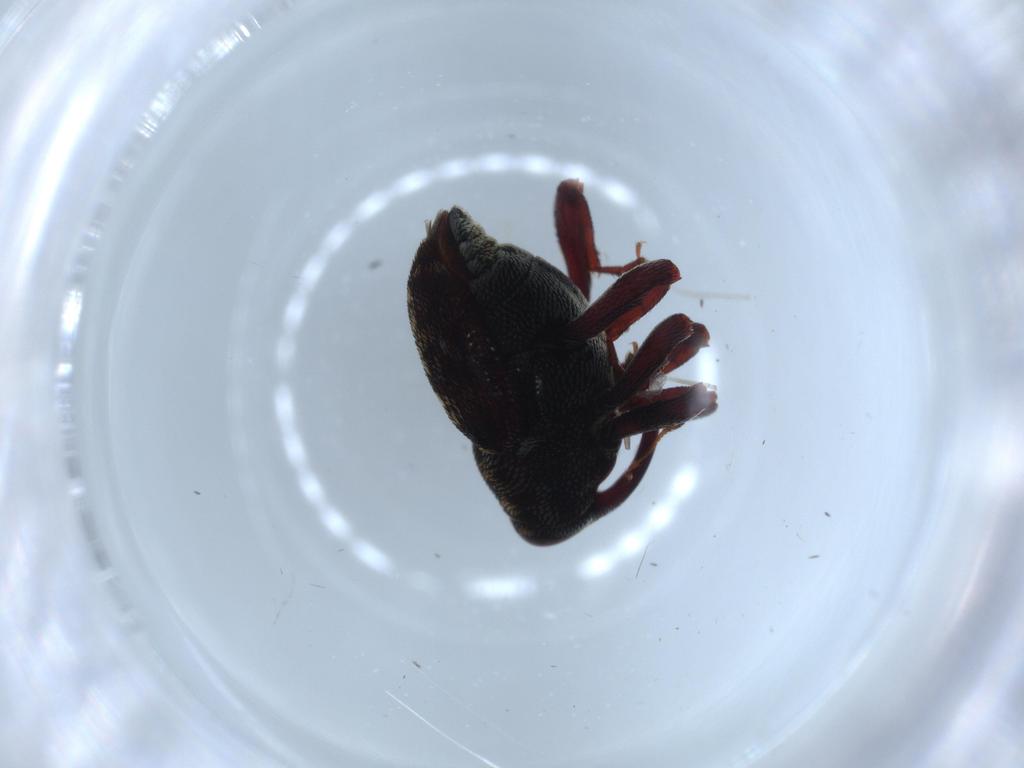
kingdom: Animalia
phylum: Arthropoda
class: Insecta
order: Coleoptera
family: Curculionidae
